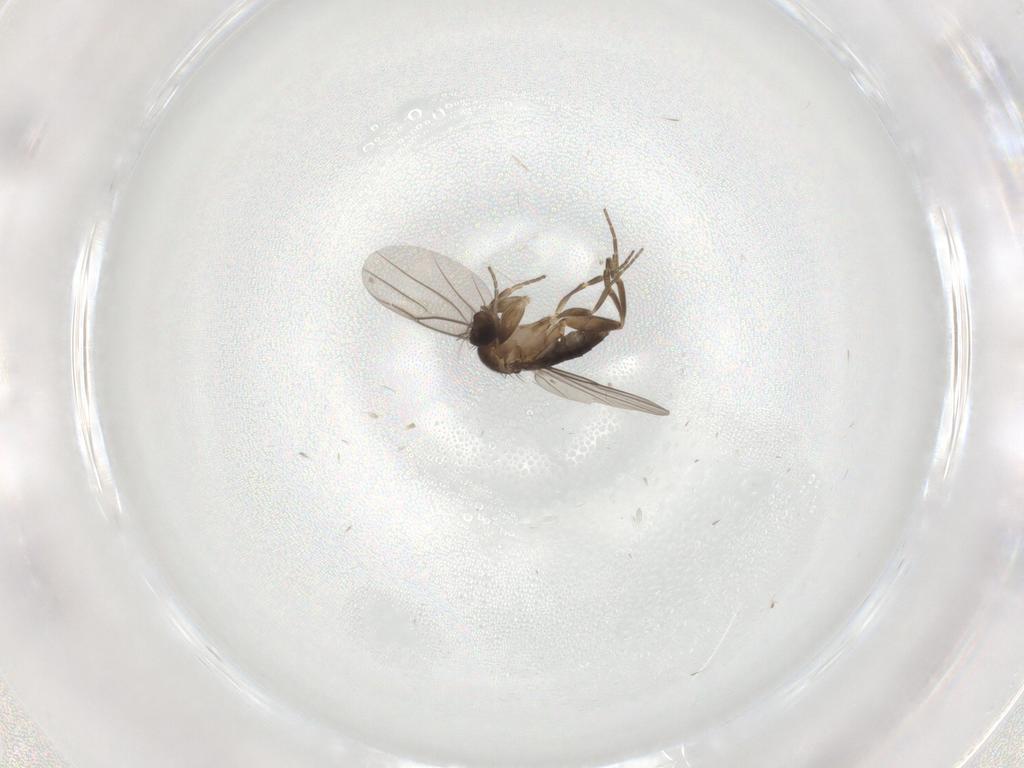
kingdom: Animalia
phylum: Arthropoda
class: Insecta
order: Diptera
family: Phoridae
